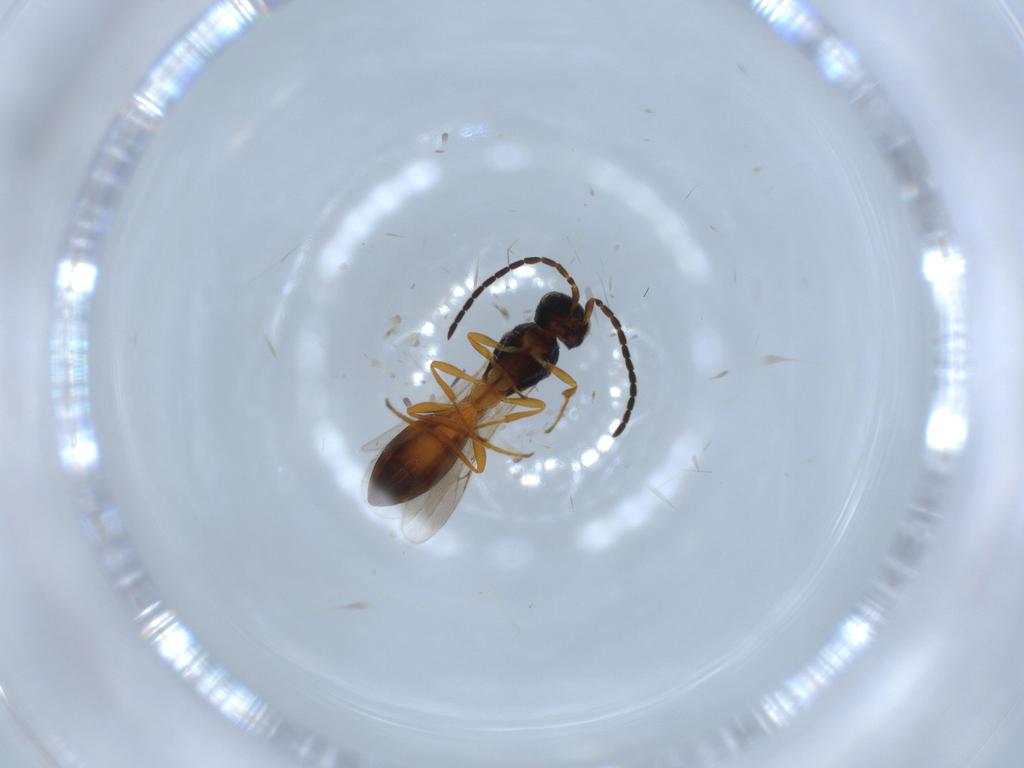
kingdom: Animalia
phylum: Arthropoda
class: Insecta
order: Hymenoptera
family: Scelionidae
